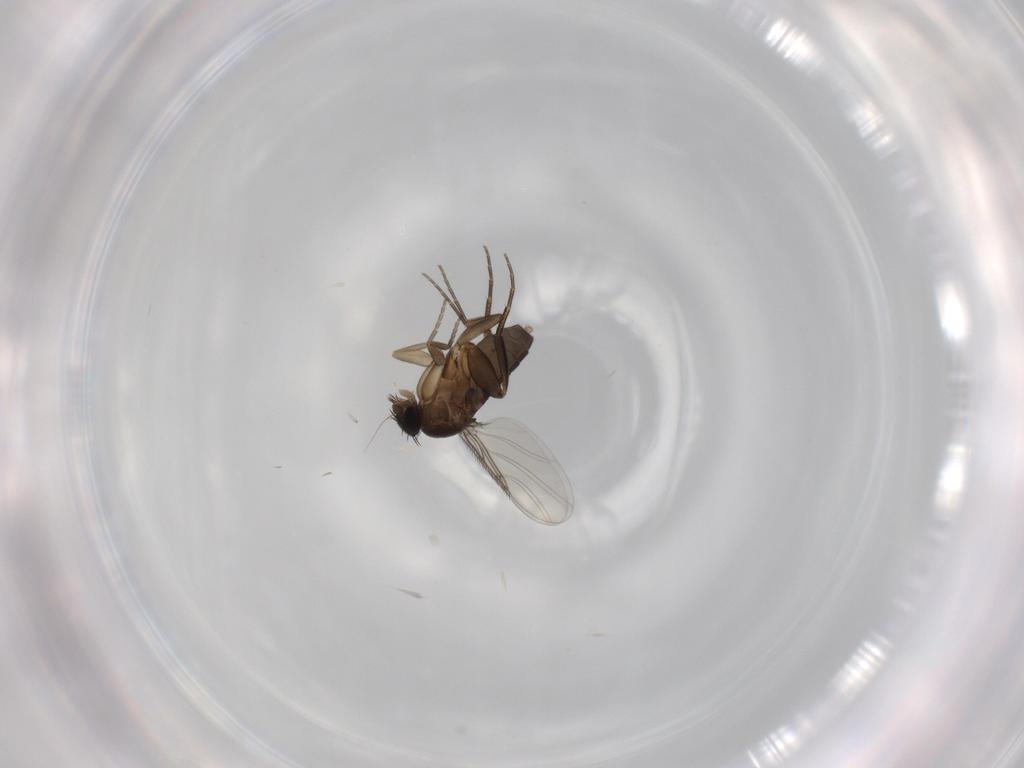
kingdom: Animalia
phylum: Arthropoda
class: Insecta
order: Diptera
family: Phoridae
